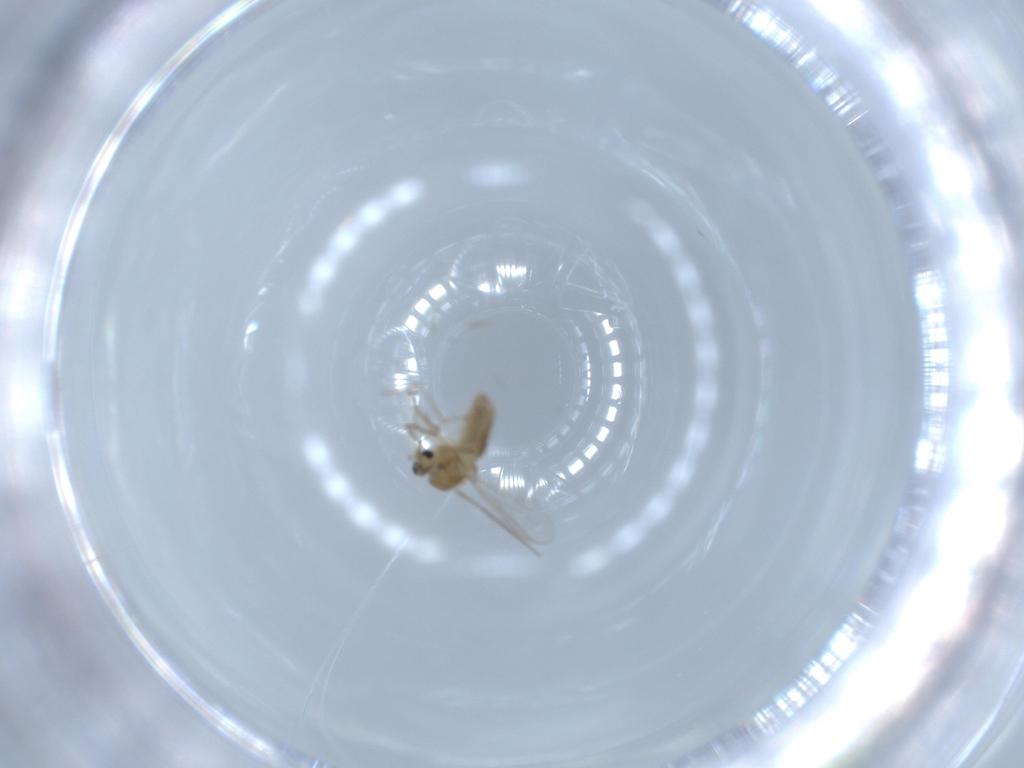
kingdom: Animalia
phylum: Arthropoda
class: Insecta
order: Diptera
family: Chironomidae
